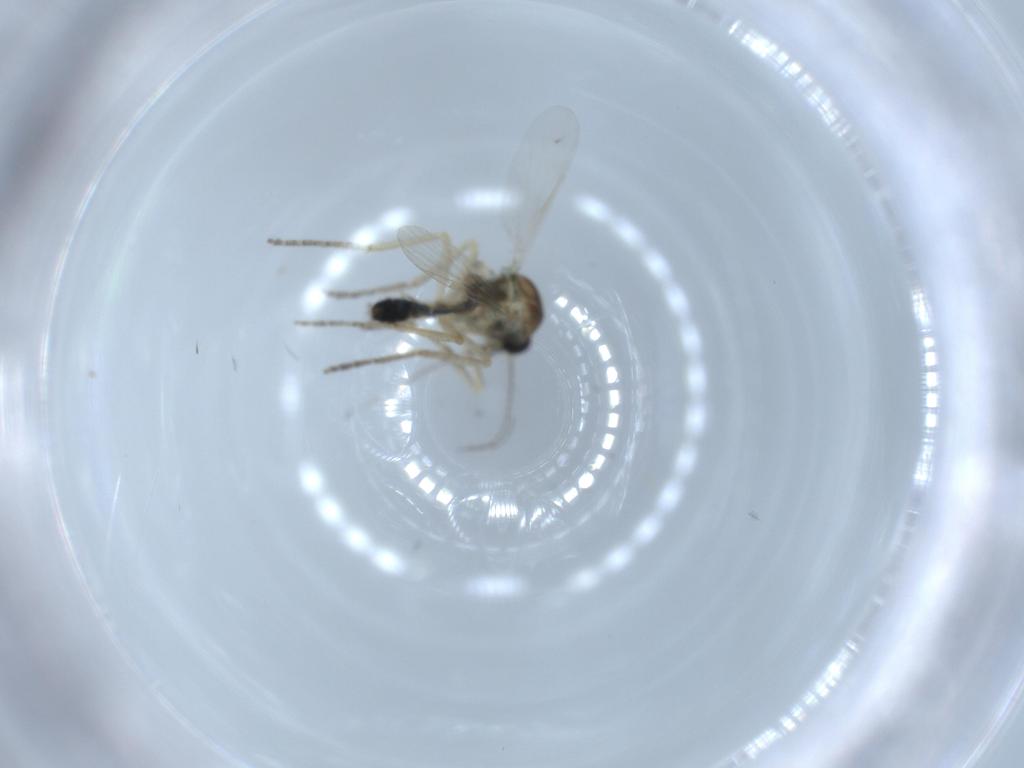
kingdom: Animalia
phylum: Arthropoda
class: Insecta
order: Diptera
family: Ceratopogonidae
